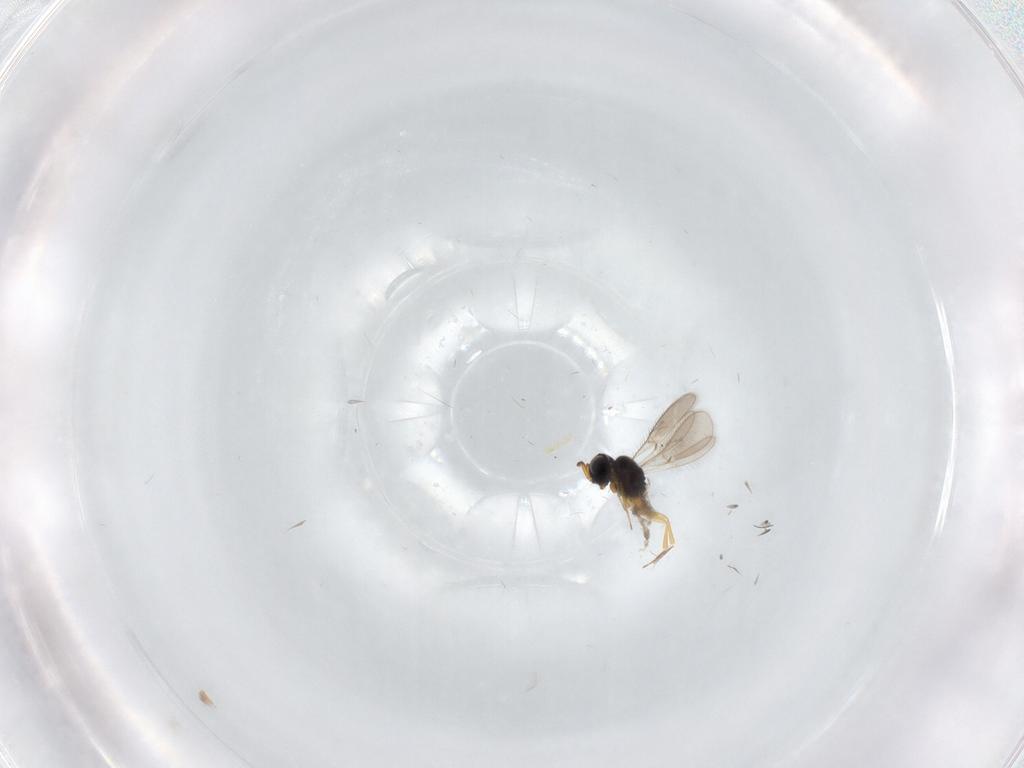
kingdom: Animalia
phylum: Arthropoda
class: Insecta
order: Hymenoptera
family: Scelionidae
